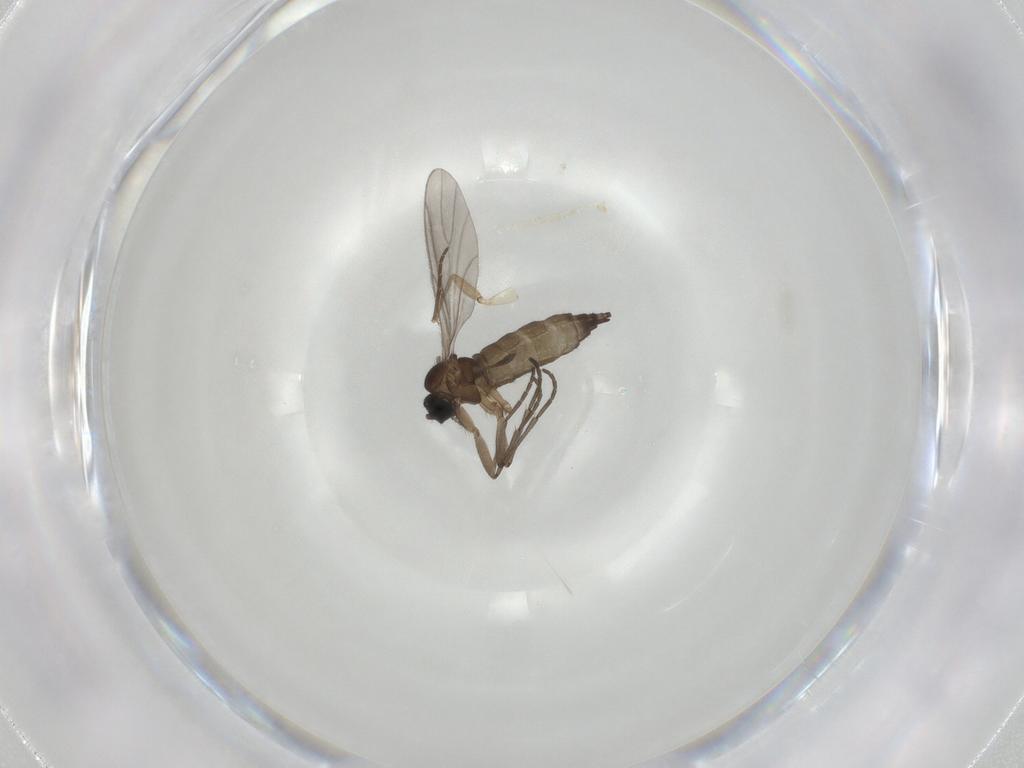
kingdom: Animalia
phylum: Arthropoda
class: Insecta
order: Diptera
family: Sciaridae
